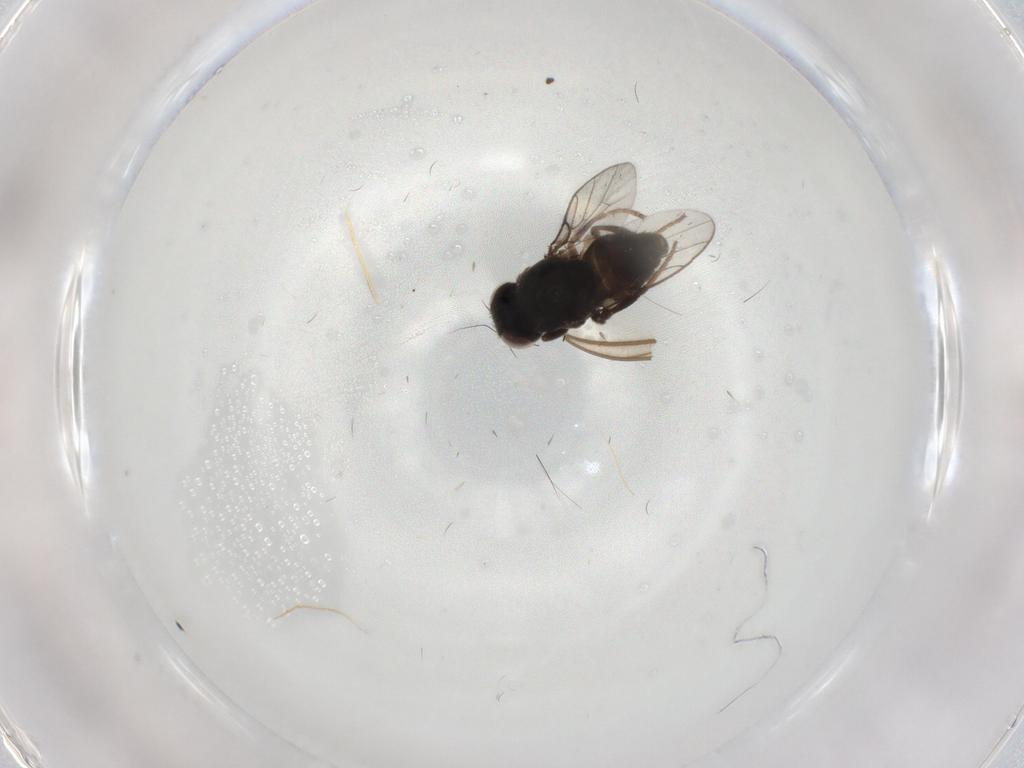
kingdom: Animalia
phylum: Arthropoda
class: Insecta
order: Diptera
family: Chloropidae
